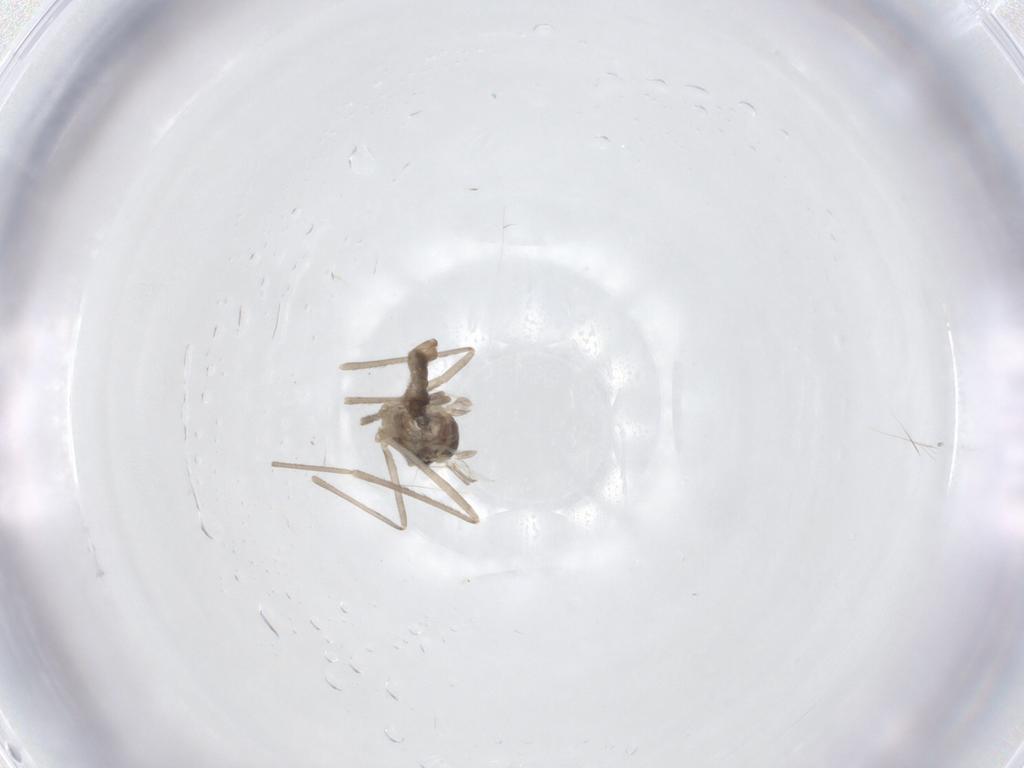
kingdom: Animalia
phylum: Arthropoda
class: Insecta
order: Diptera
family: Cecidomyiidae
